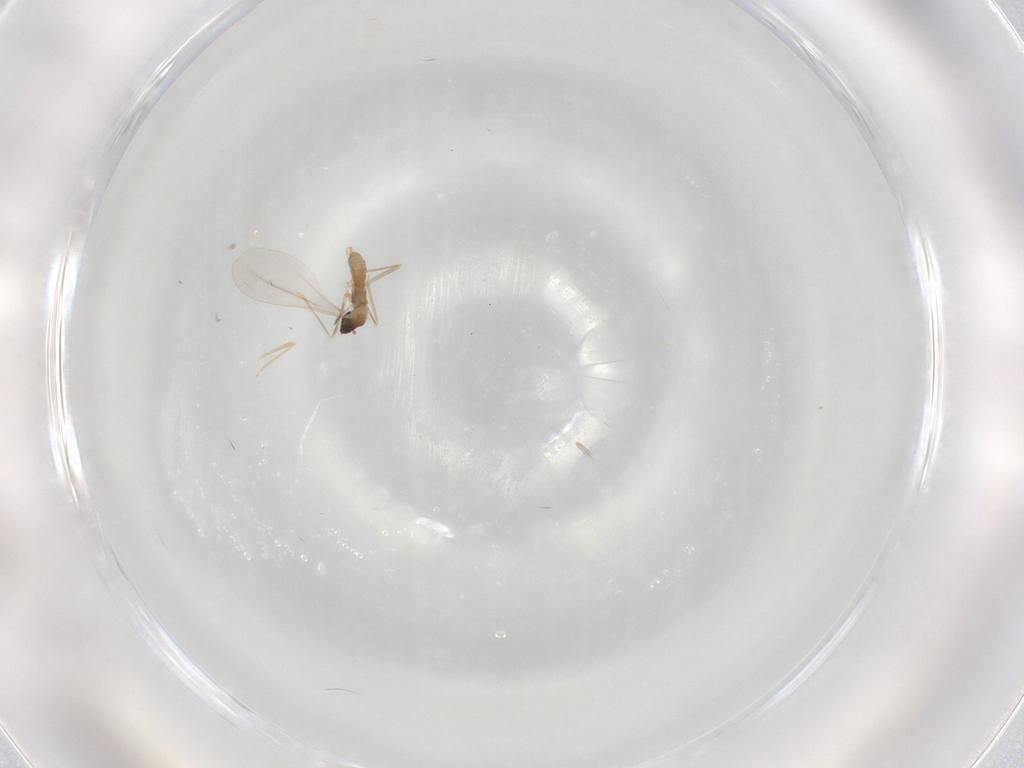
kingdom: Animalia
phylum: Arthropoda
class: Insecta
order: Diptera
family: Cecidomyiidae
